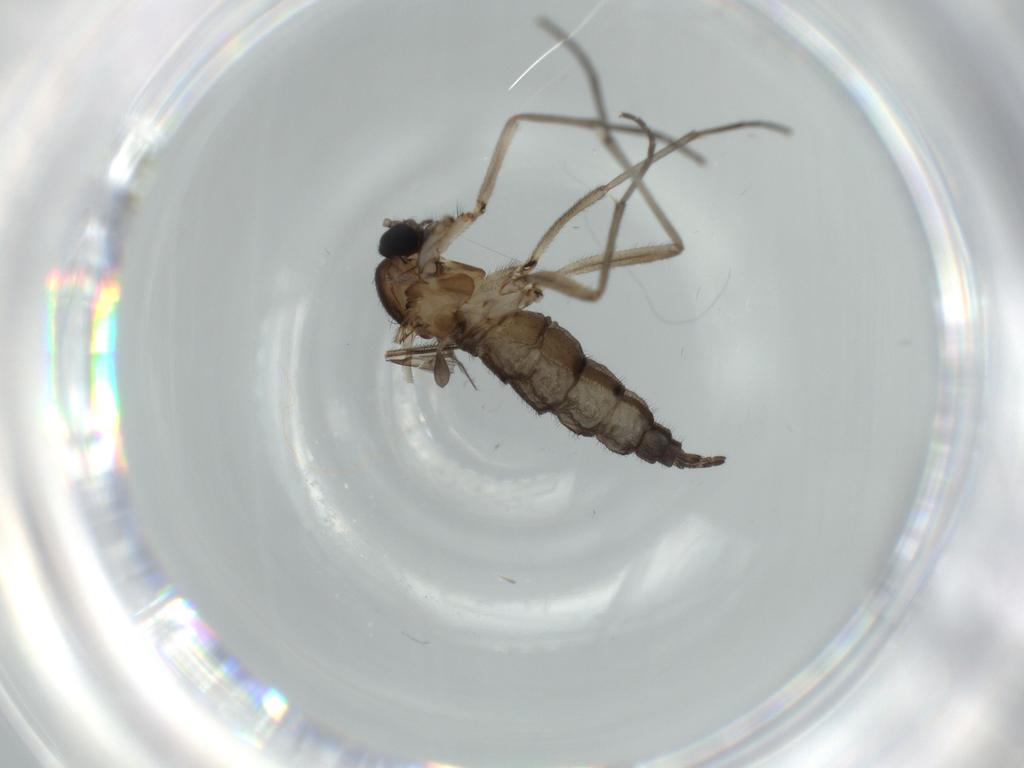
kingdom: Animalia
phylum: Arthropoda
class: Insecta
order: Diptera
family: Sciaridae
